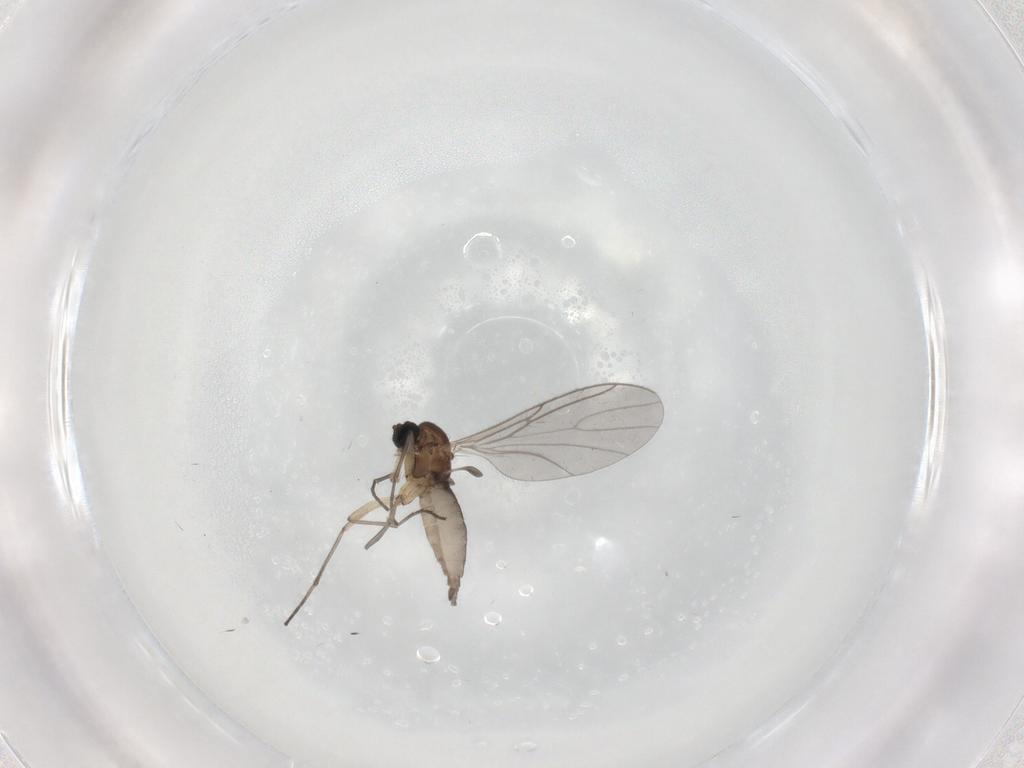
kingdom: Animalia
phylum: Arthropoda
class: Insecta
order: Diptera
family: Sciaridae
